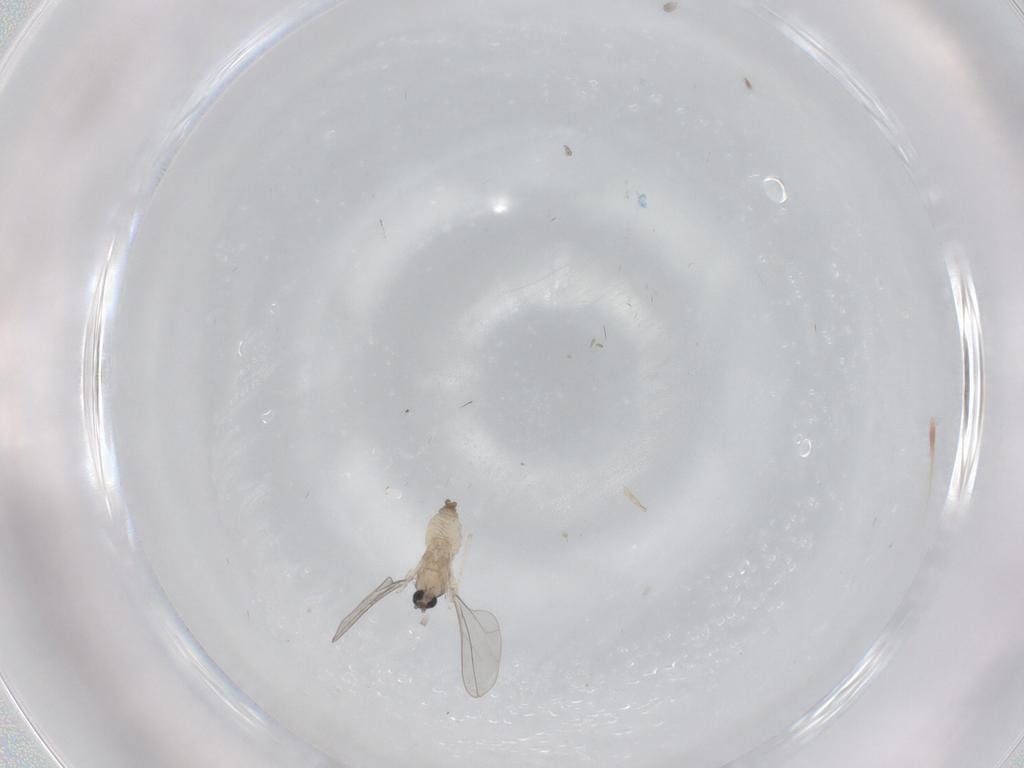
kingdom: Animalia
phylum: Arthropoda
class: Insecta
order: Diptera
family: Cecidomyiidae
